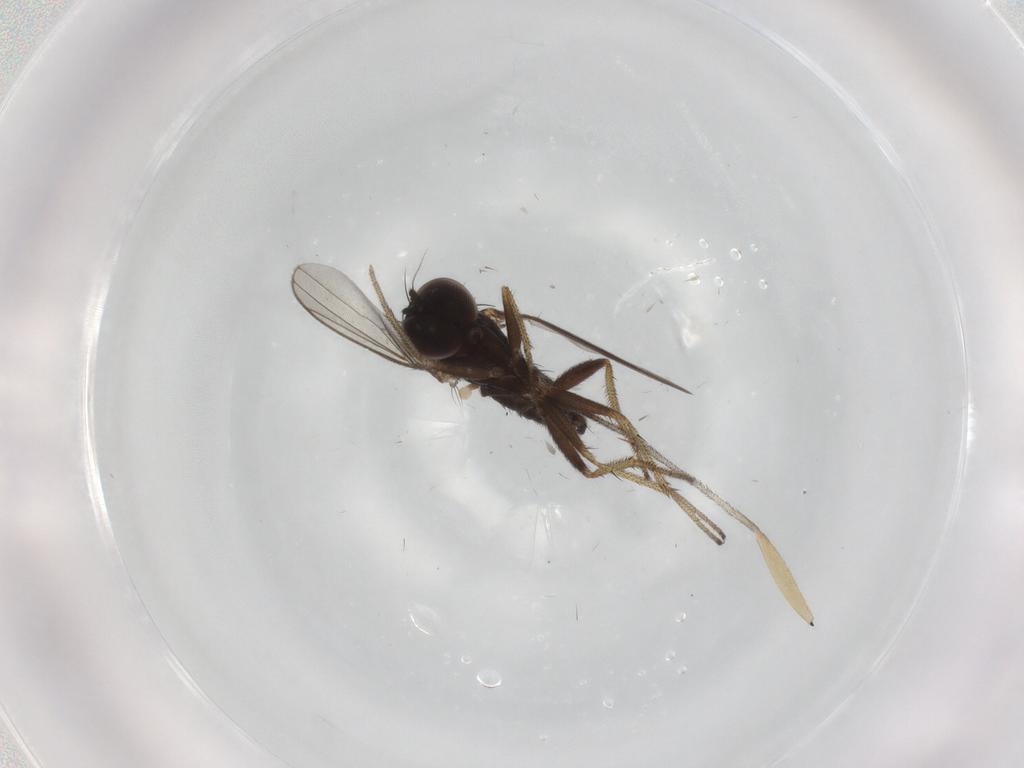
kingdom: Animalia
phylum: Arthropoda
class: Insecta
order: Diptera
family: Sciaridae
